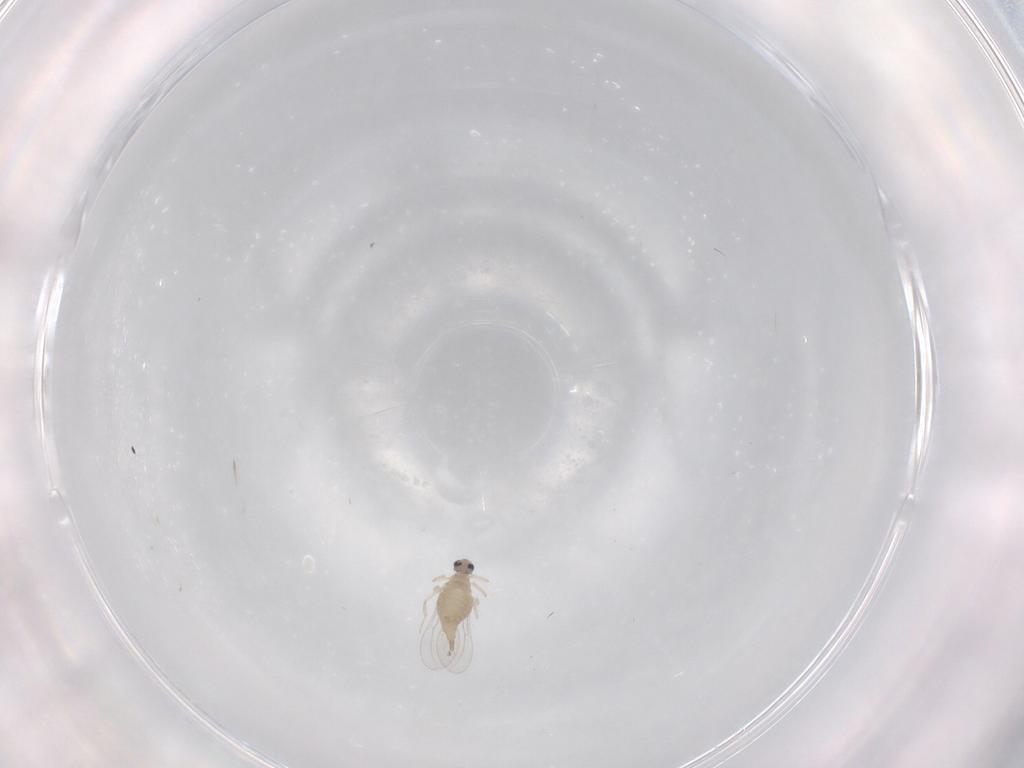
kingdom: Animalia
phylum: Arthropoda
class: Insecta
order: Diptera
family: Cecidomyiidae
